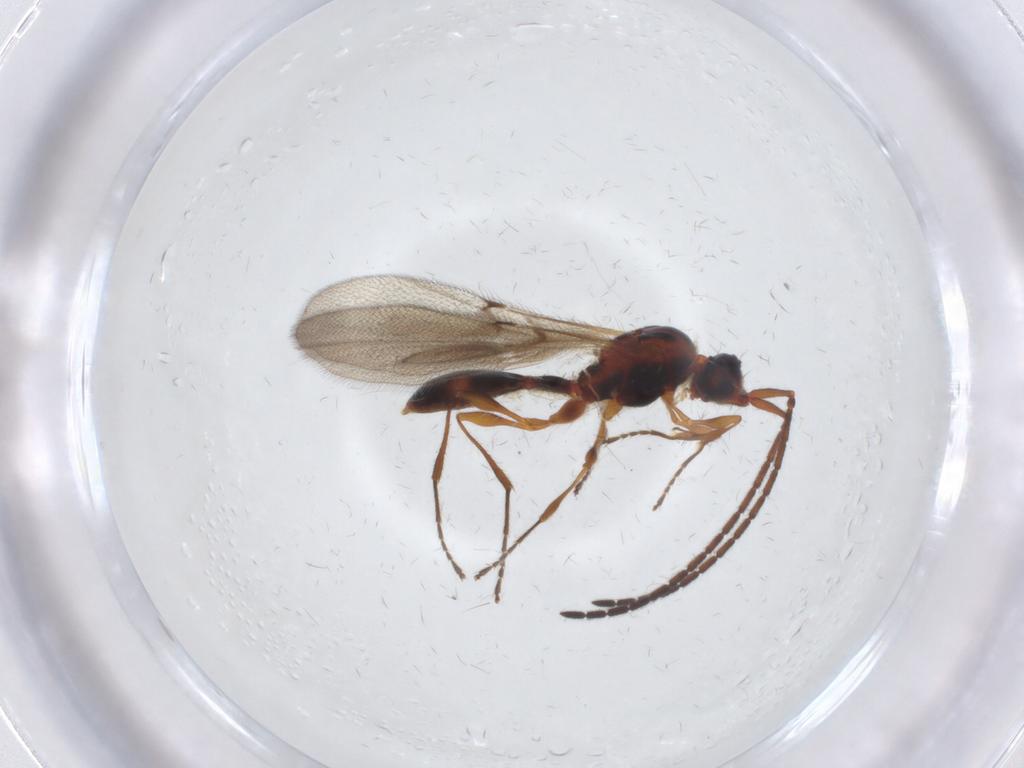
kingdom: Animalia
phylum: Arthropoda
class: Insecta
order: Hymenoptera
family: Diapriidae
